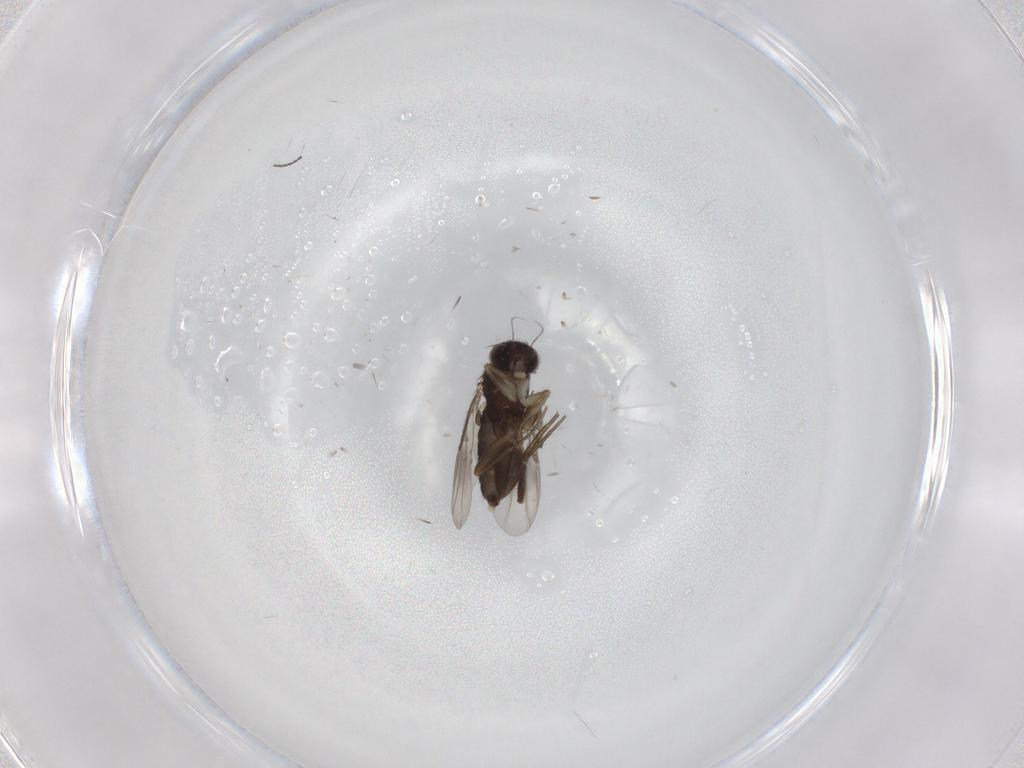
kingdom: Animalia
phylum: Arthropoda
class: Insecta
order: Diptera
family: Phoridae
